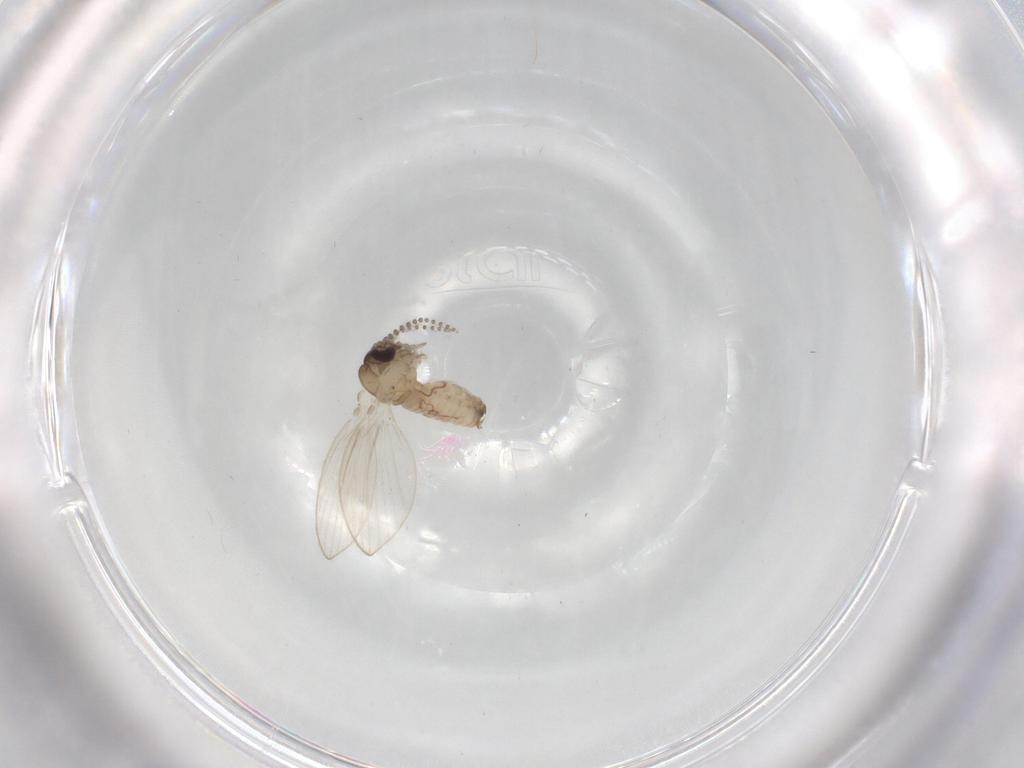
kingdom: Animalia
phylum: Arthropoda
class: Insecta
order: Diptera
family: Psychodidae
